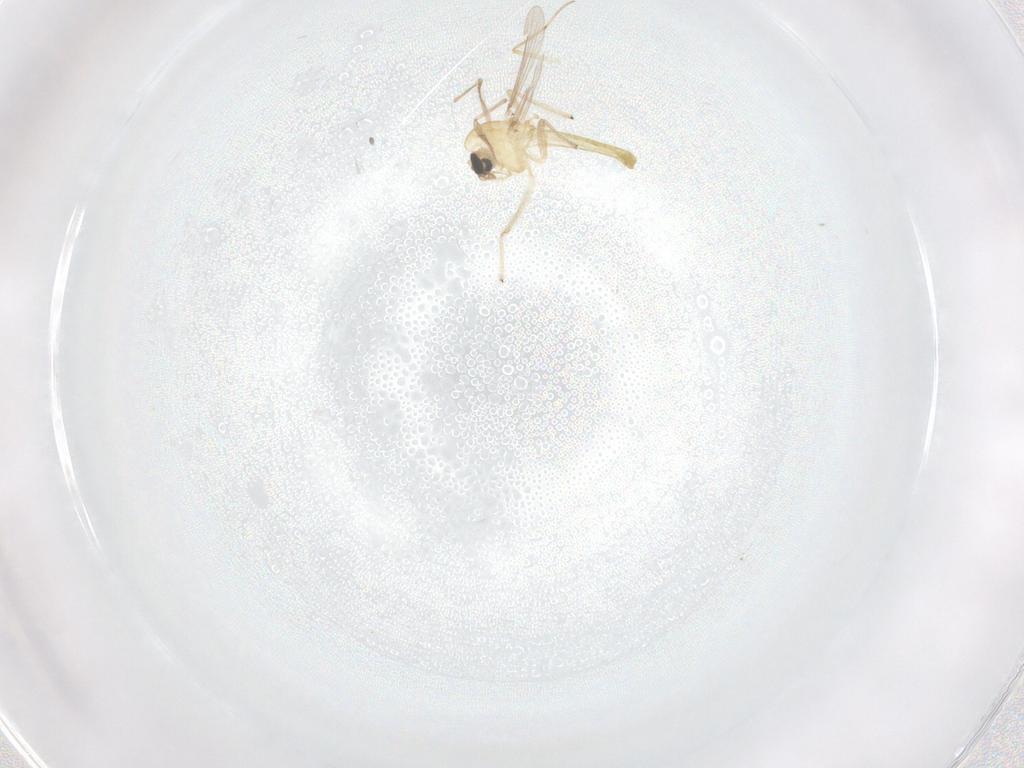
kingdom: Animalia
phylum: Arthropoda
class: Insecta
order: Diptera
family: Chironomidae
